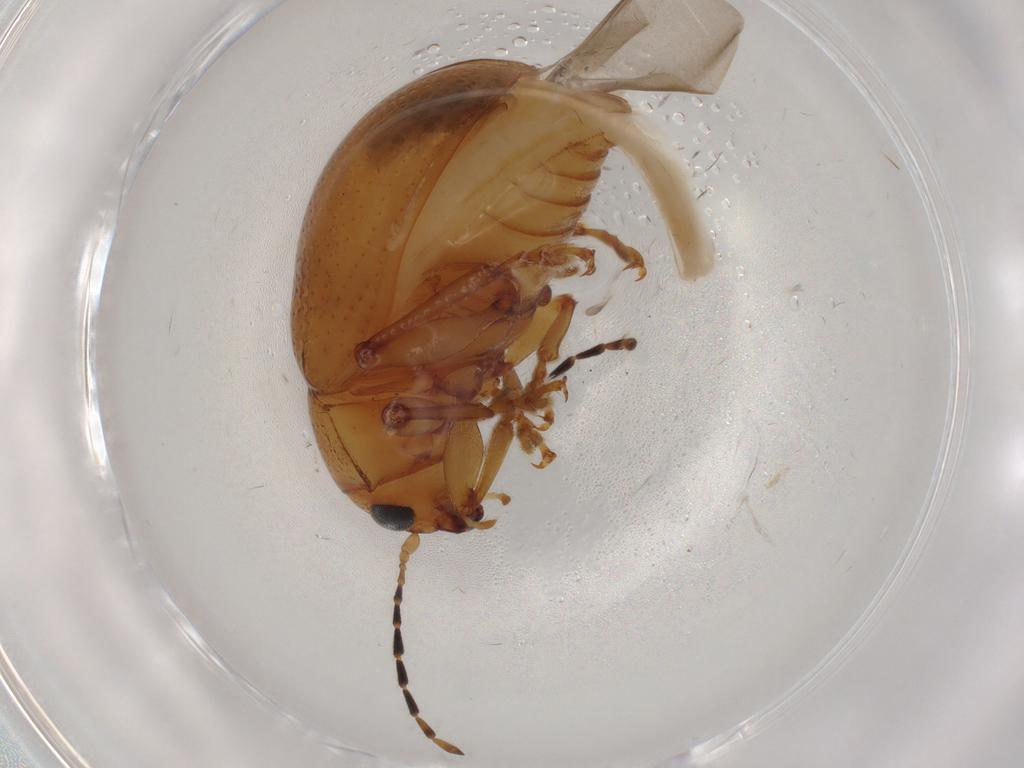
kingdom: Animalia
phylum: Arthropoda
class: Insecta
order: Coleoptera
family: Chrysomelidae
